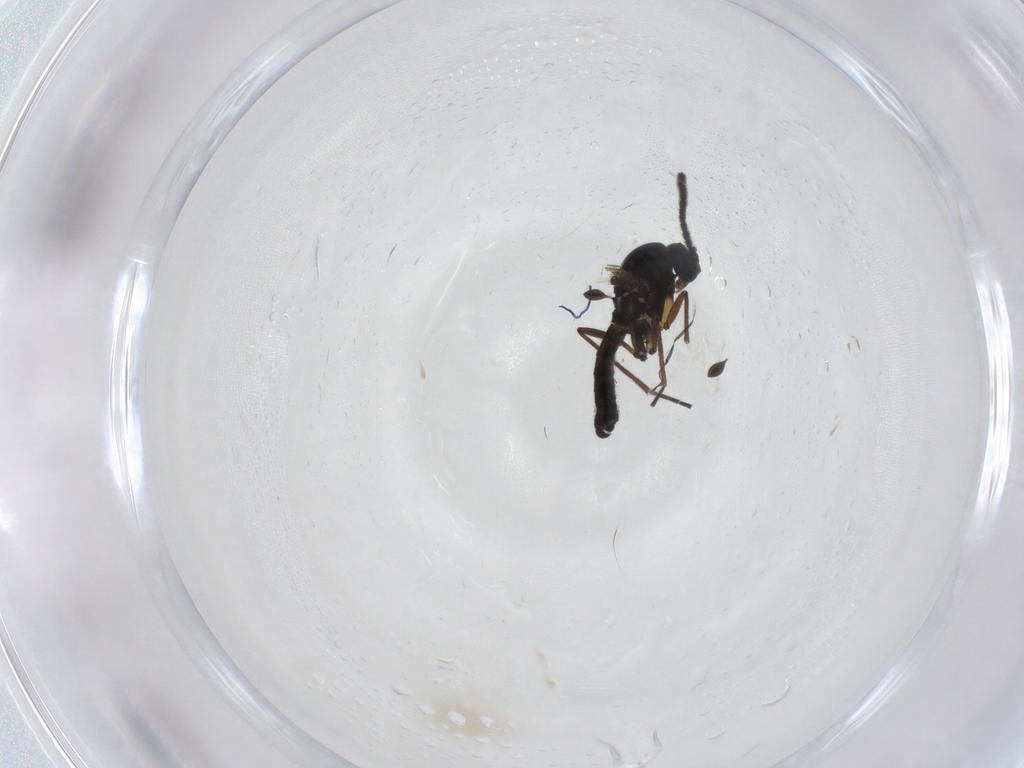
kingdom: Animalia
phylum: Arthropoda
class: Insecta
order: Diptera
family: Sciaridae
